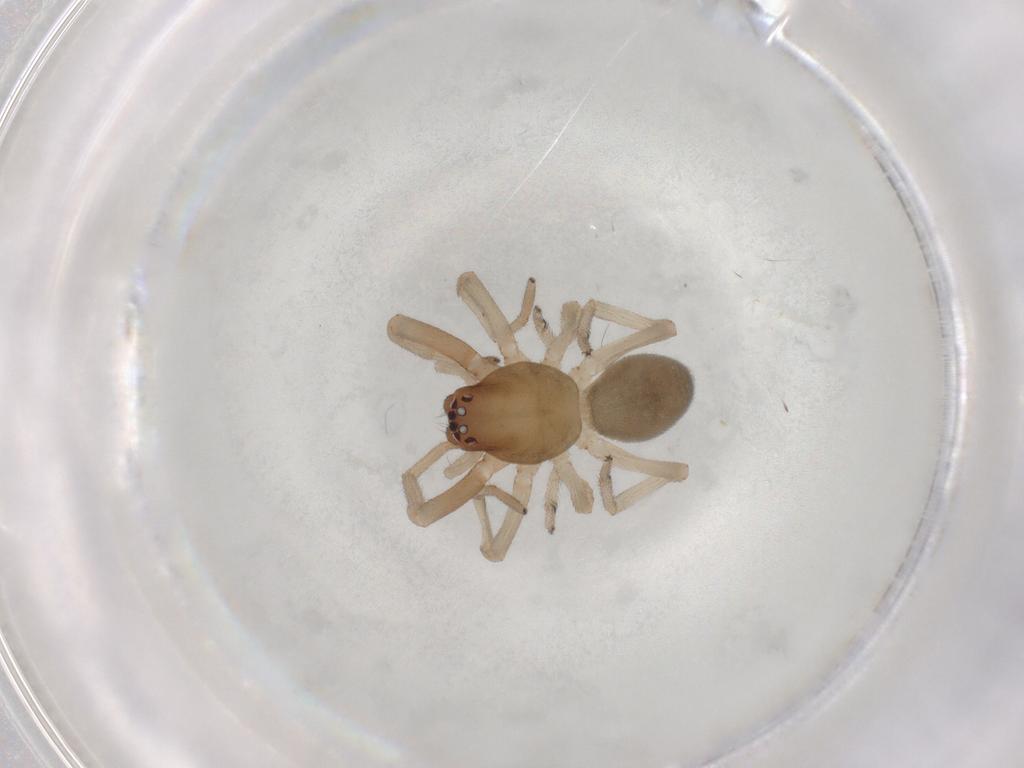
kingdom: Animalia
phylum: Arthropoda
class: Arachnida
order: Araneae
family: Trachelidae
